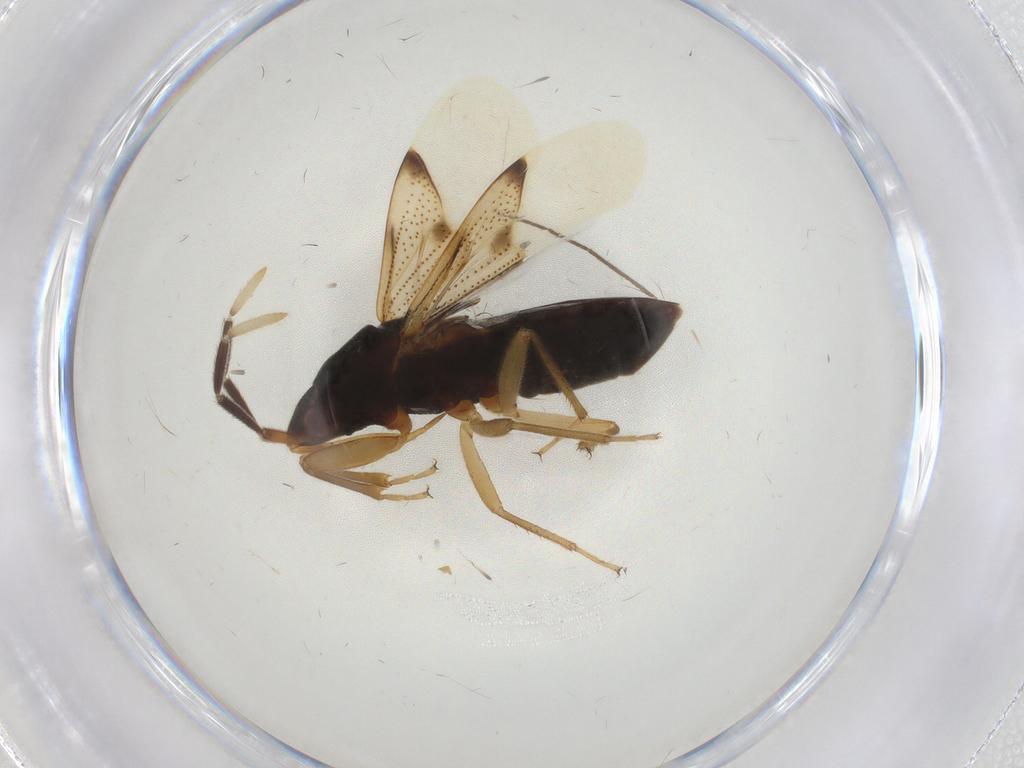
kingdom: Animalia
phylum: Arthropoda
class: Insecta
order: Hemiptera
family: Rhyparochromidae
